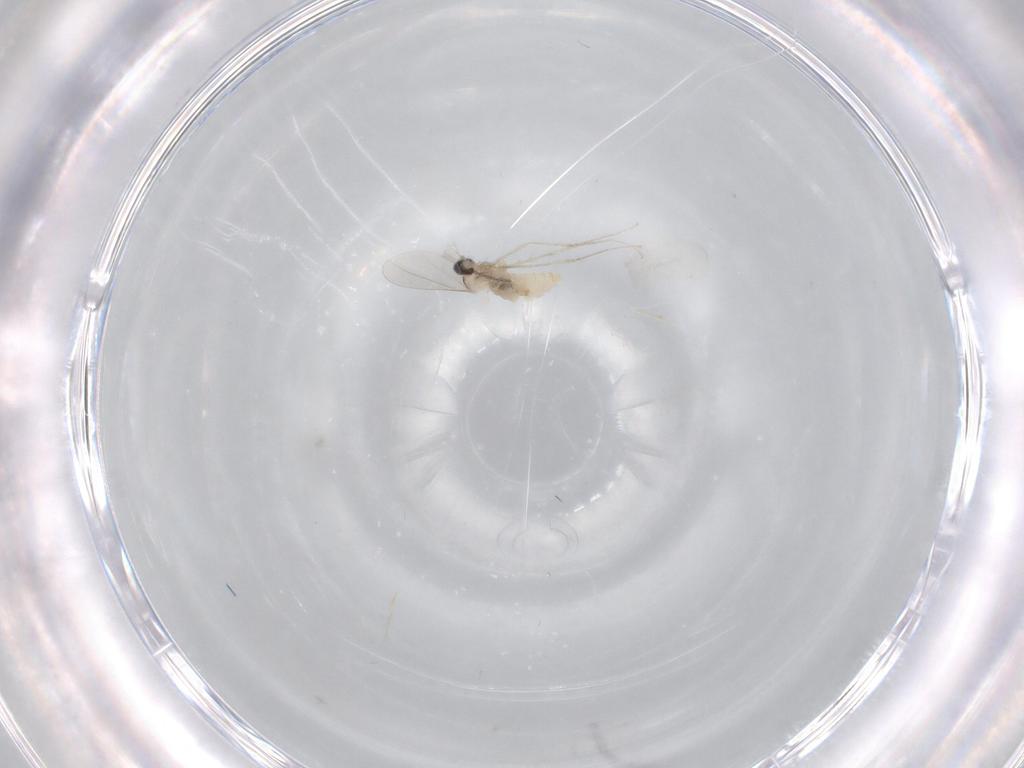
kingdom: Animalia
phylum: Arthropoda
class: Insecta
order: Diptera
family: Cecidomyiidae
